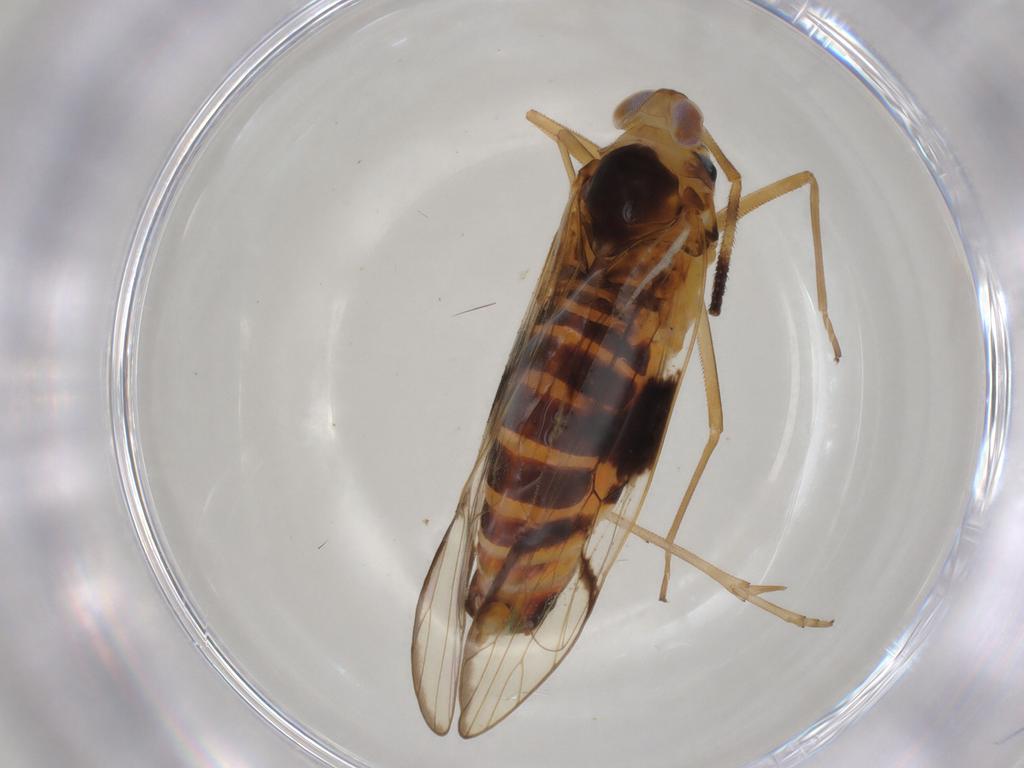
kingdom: Animalia
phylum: Arthropoda
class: Insecta
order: Hemiptera
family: Delphacidae
